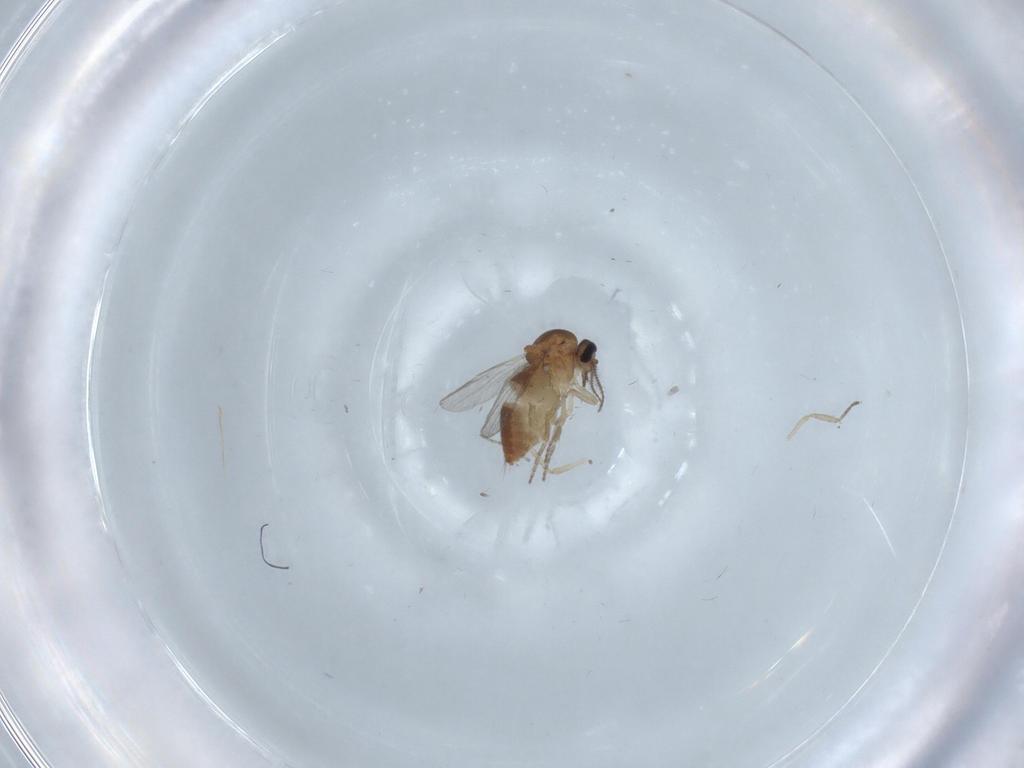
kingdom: Animalia
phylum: Arthropoda
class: Insecta
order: Diptera
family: Ceratopogonidae
